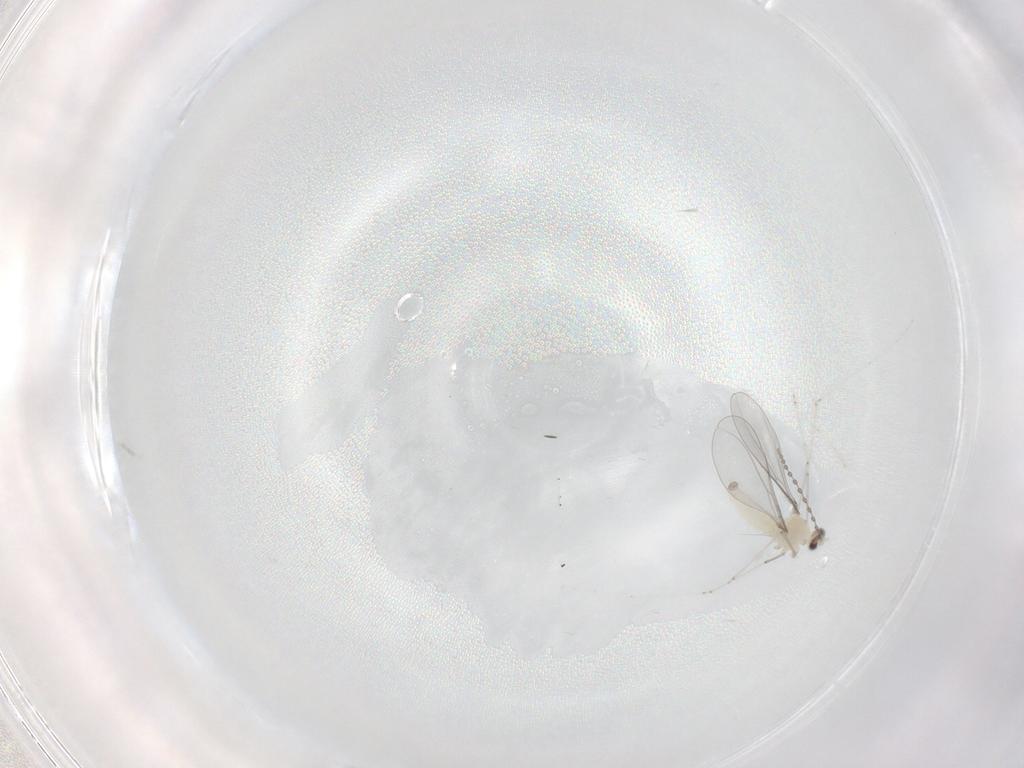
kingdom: Animalia
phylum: Arthropoda
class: Insecta
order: Diptera
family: Cecidomyiidae
